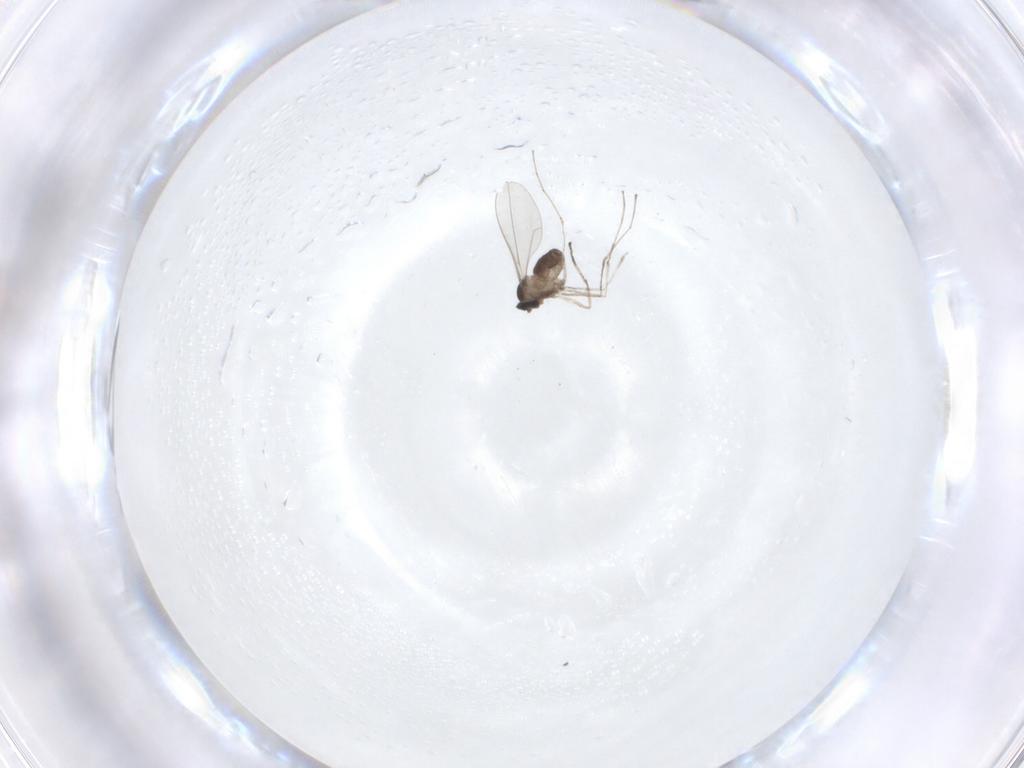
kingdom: Animalia
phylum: Arthropoda
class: Insecta
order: Diptera
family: Cecidomyiidae
